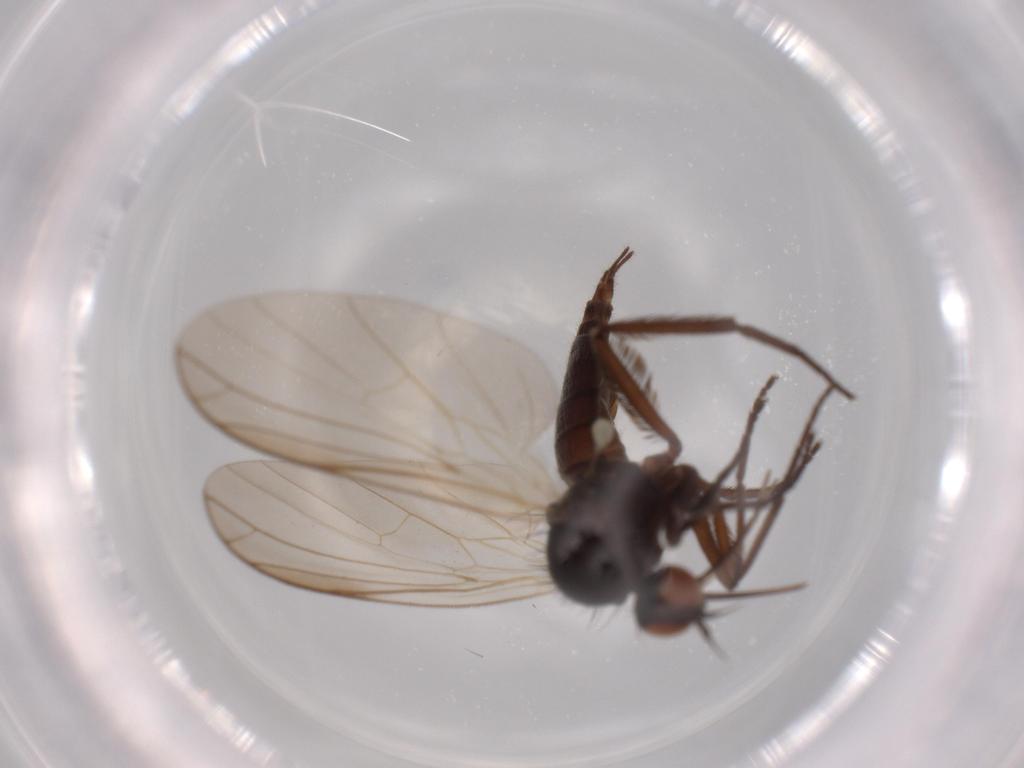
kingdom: Animalia
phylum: Arthropoda
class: Insecta
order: Diptera
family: Empididae
